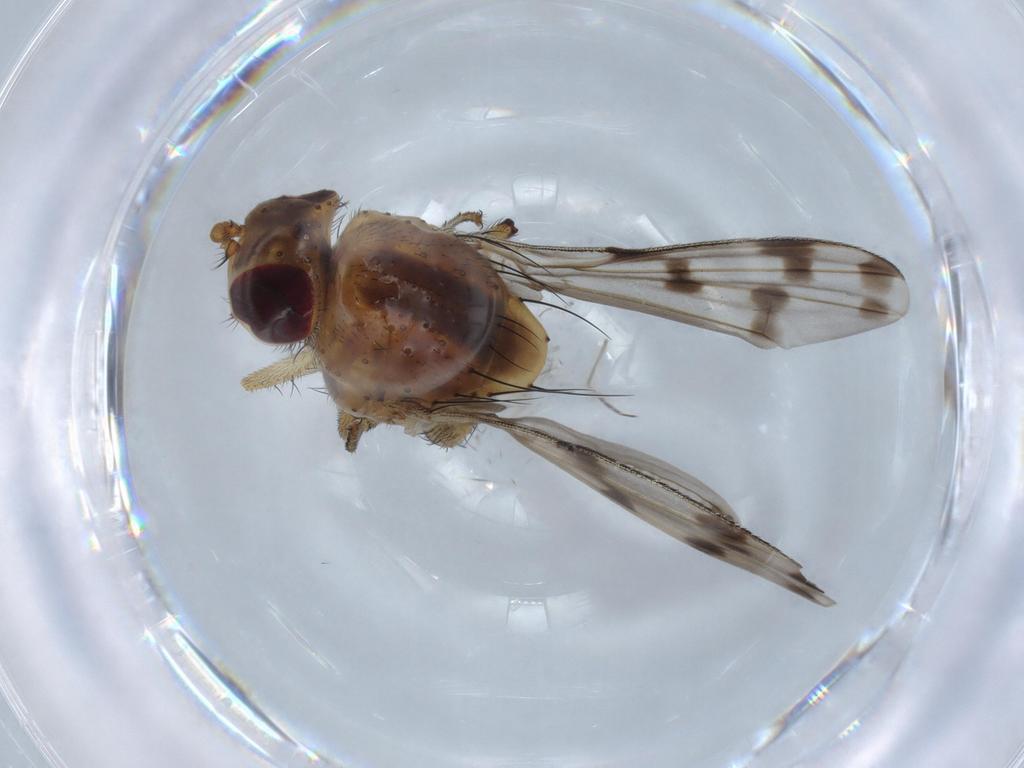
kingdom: Animalia
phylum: Arthropoda
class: Insecta
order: Diptera
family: Lauxaniidae
